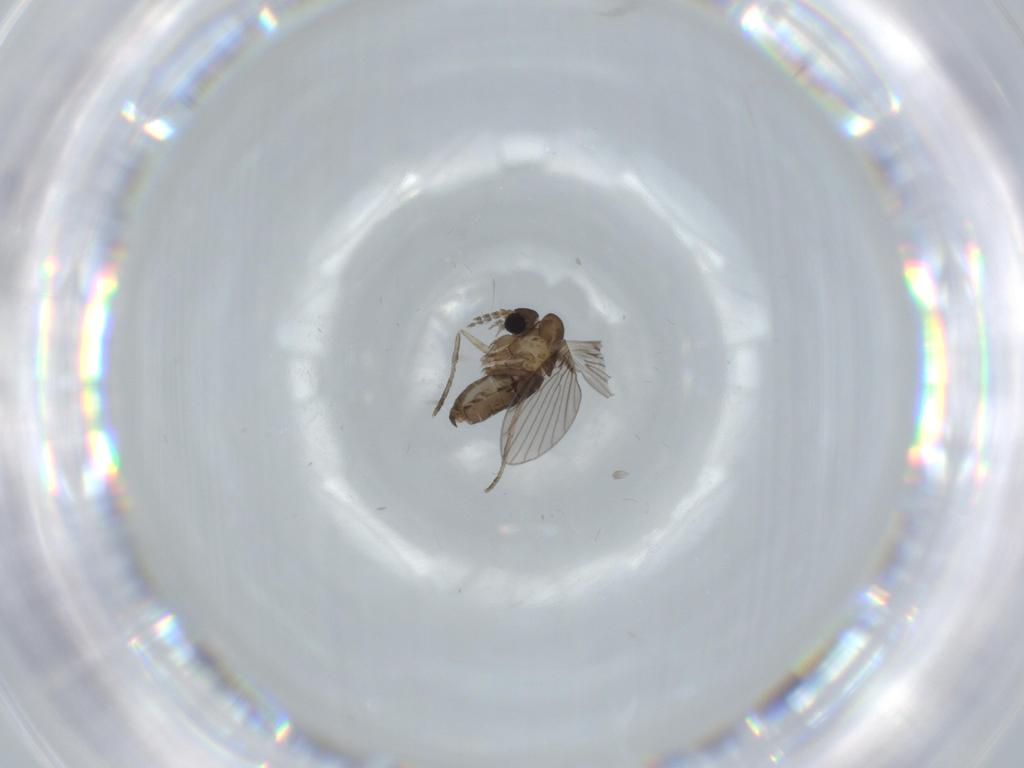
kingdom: Animalia
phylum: Arthropoda
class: Insecta
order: Diptera
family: Psychodidae
